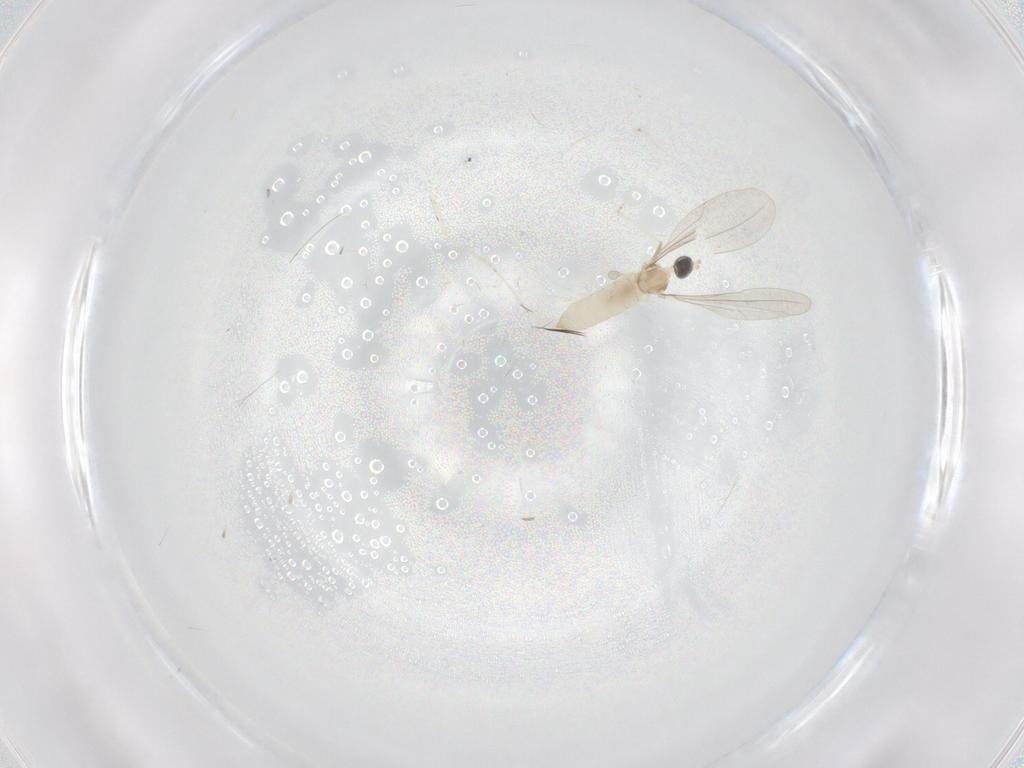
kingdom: Animalia
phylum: Arthropoda
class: Insecta
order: Diptera
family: Cecidomyiidae
